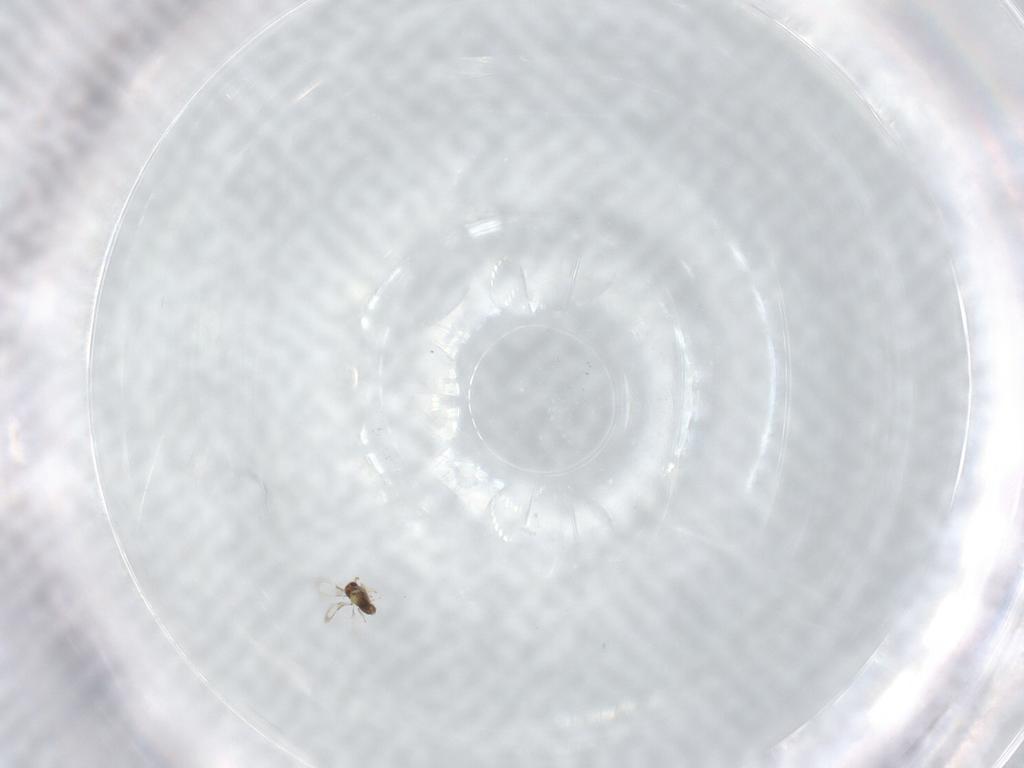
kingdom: Animalia
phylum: Arthropoda
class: Insecta
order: Hymenoptera
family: Aphelinidae
